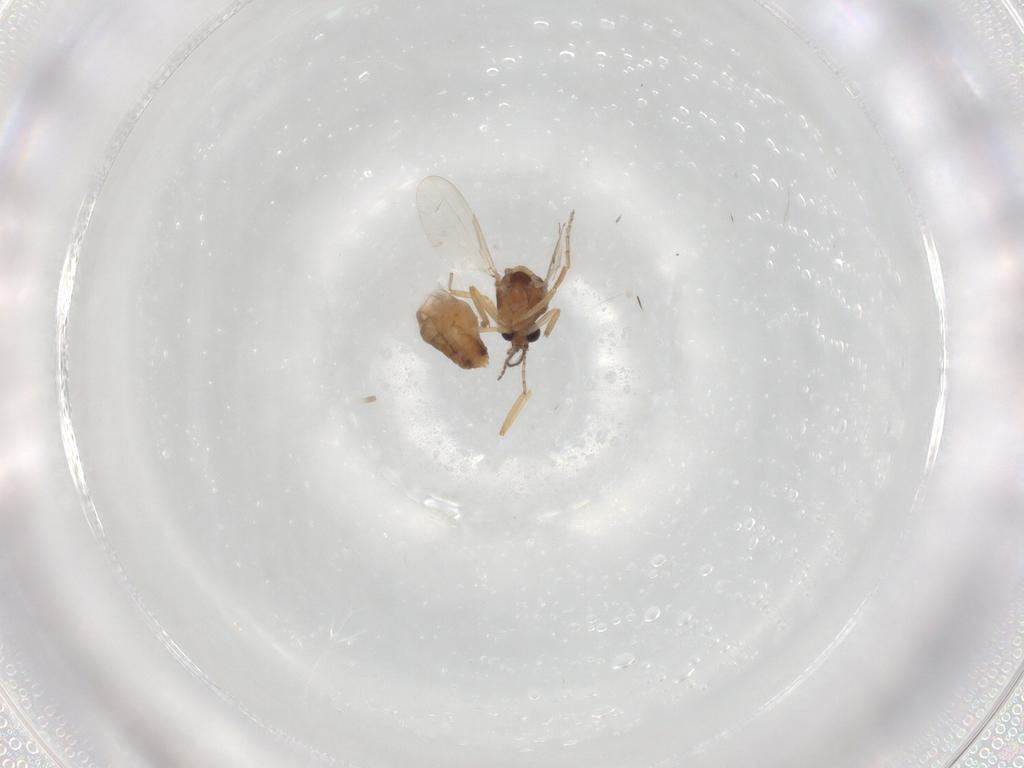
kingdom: Animalia
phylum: Arthropoda
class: Insecta
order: Diptera
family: Ceratopogonidae
